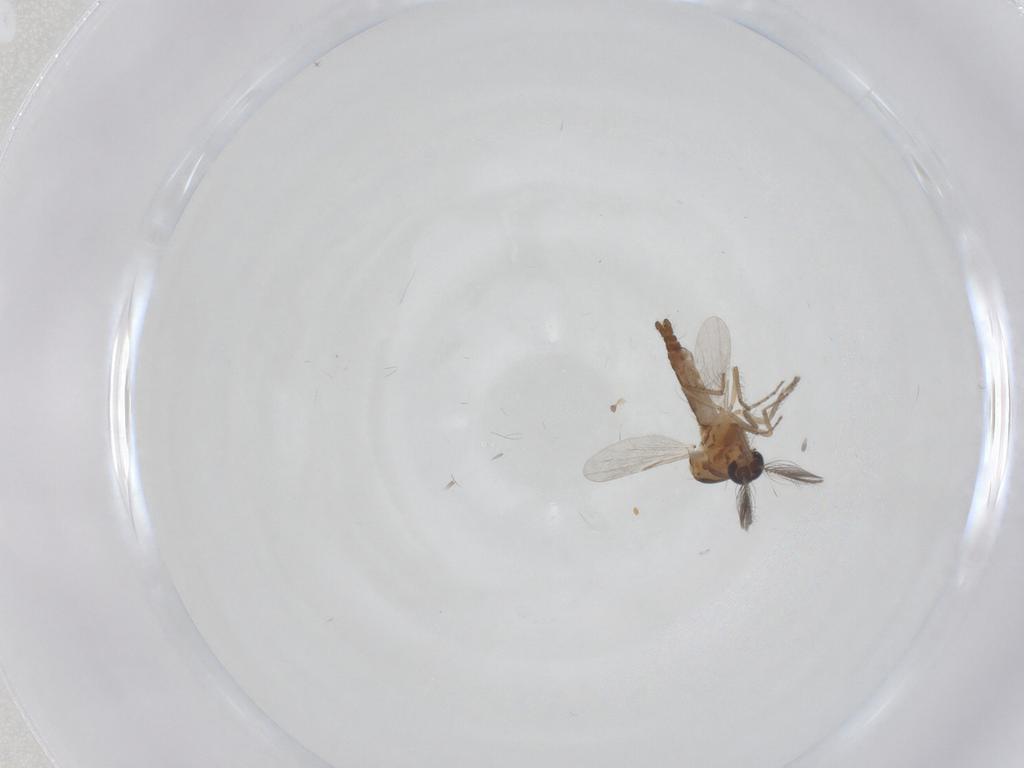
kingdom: Animalia
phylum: Arthropoda
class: Insecta
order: Diptera
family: Ceratopogonidae
